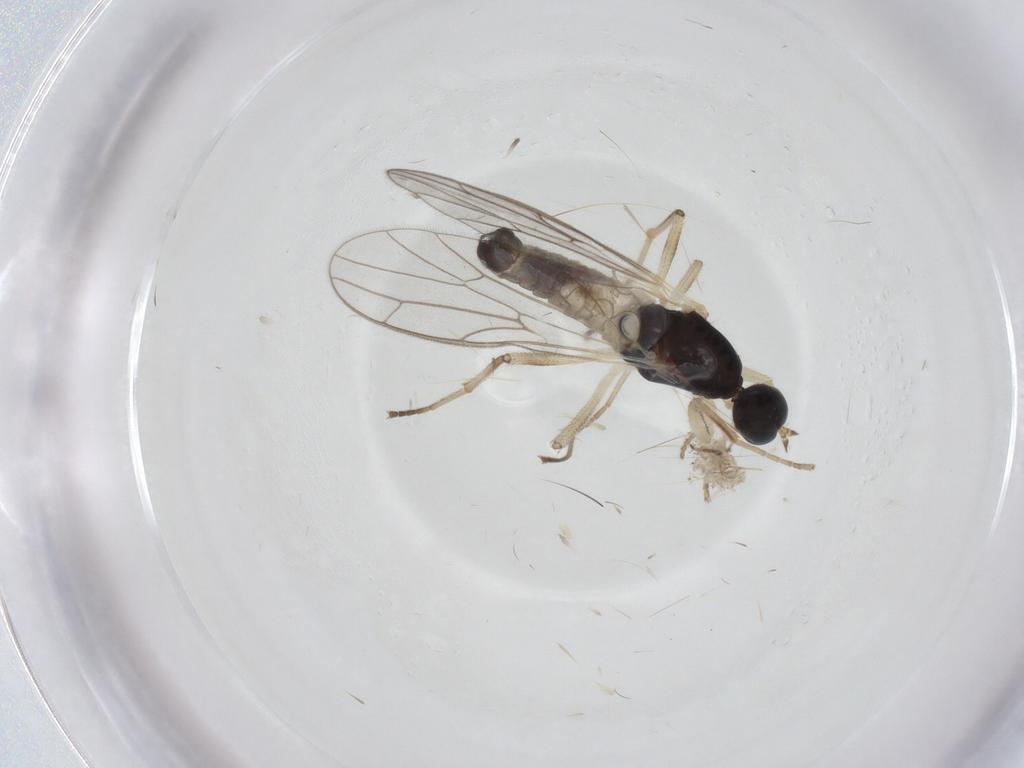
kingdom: Animalia
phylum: Arthropoda
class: Insecta
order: Diptera
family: Empididae
